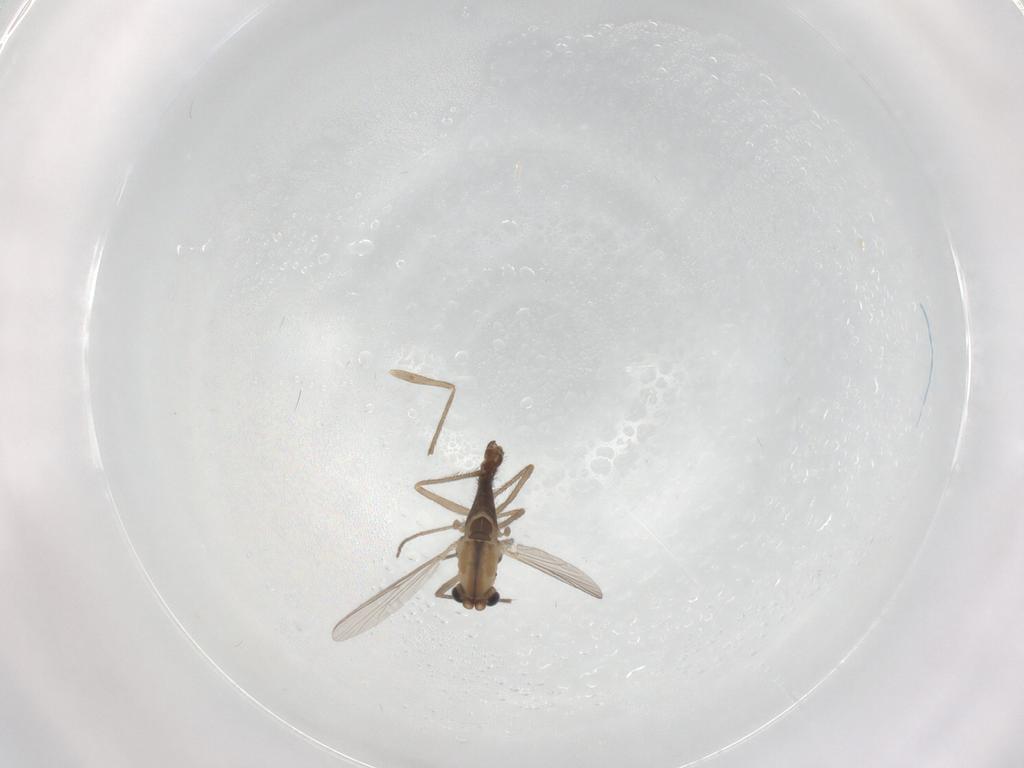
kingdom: Animalia
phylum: Arthropoda
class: Insecta
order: Diptera
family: Chironomidae
